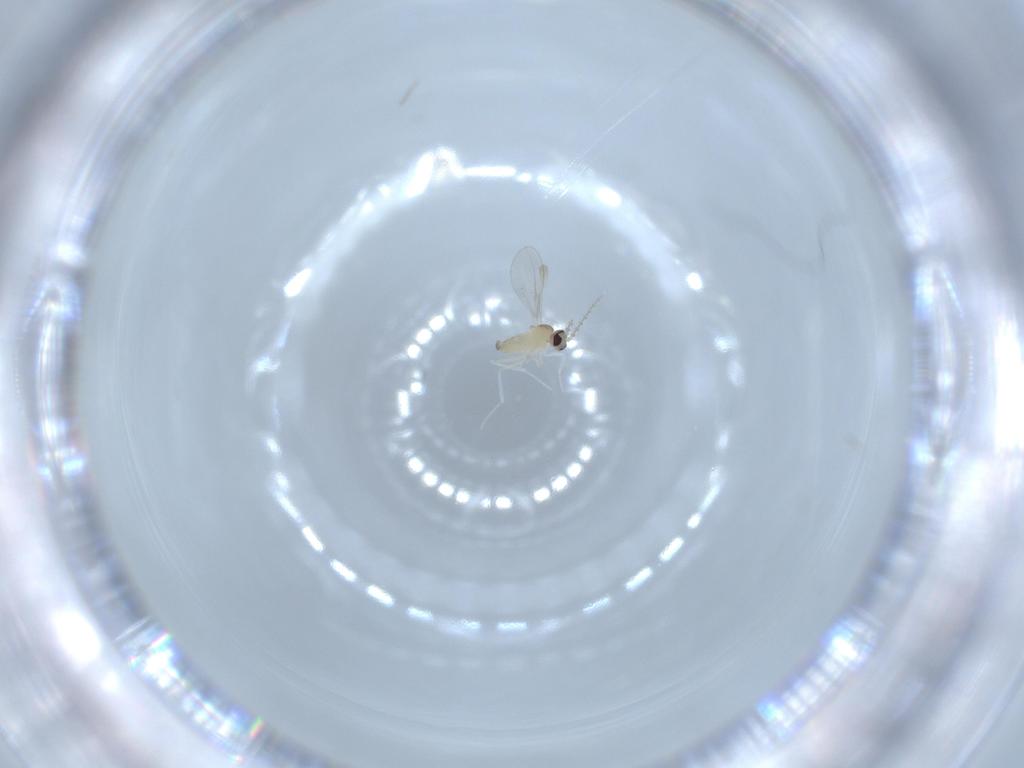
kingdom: Animalia
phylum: Arthropoda
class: Insecta
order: Diptera
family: Cecidomyiidae
